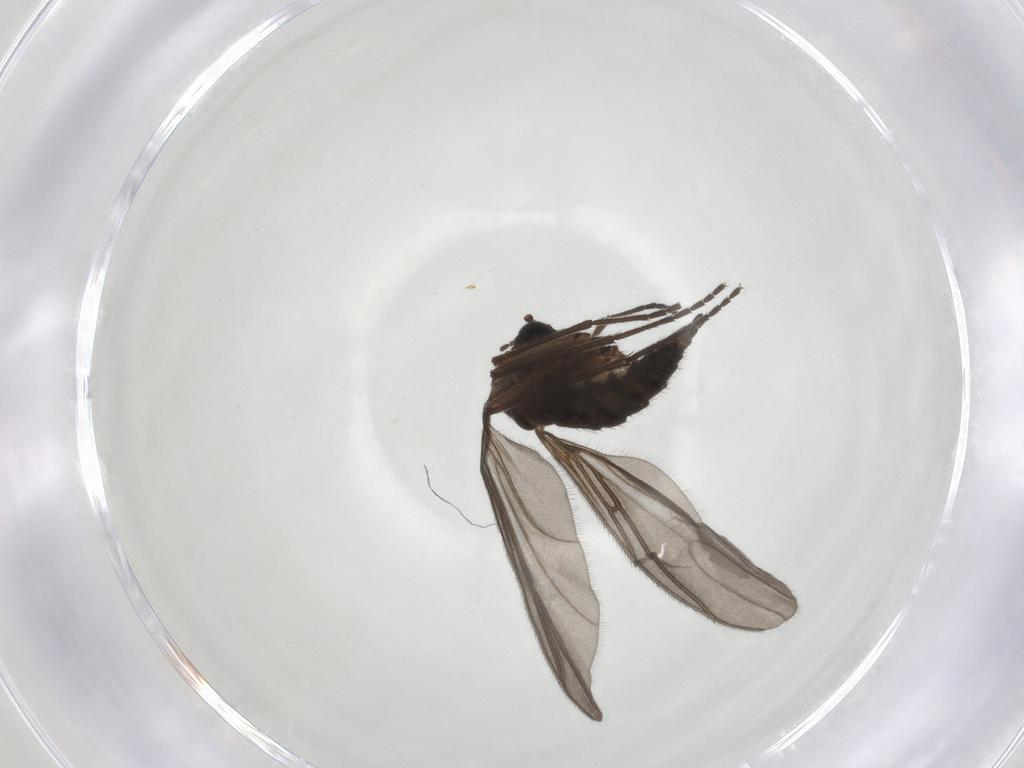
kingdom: Animalia
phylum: Arthropoda
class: Insecta
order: Diptera
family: Sciaridae
